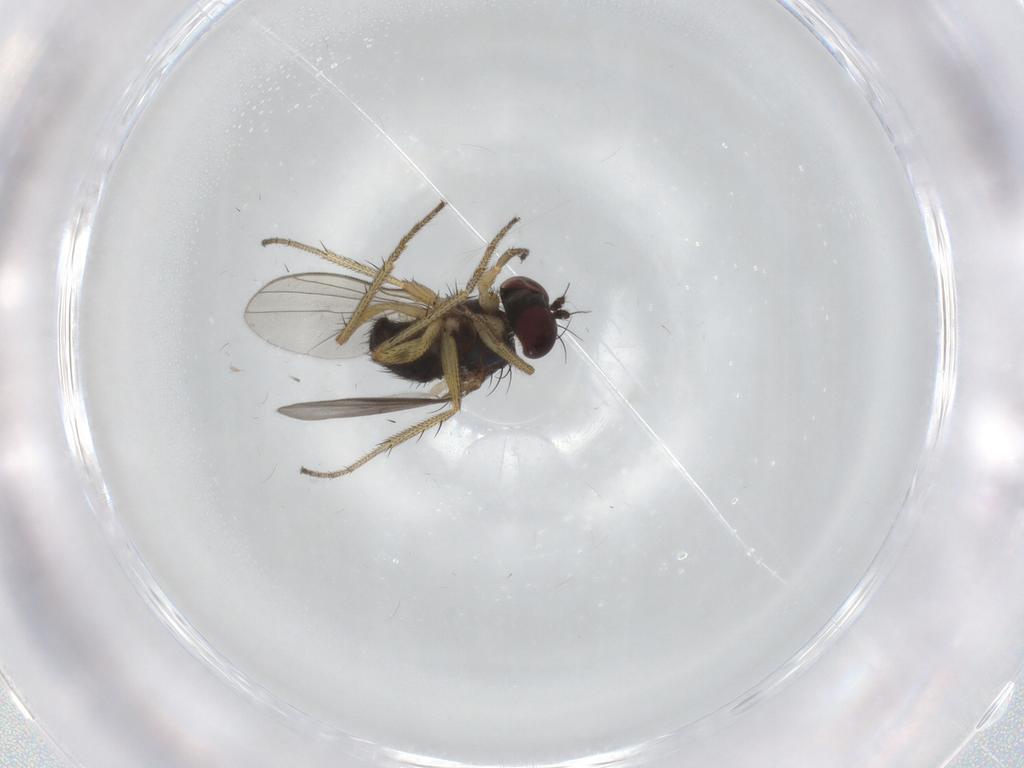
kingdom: Animalia
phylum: Arthropoda
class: Insecta
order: Diptera
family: Dolichopodidae
